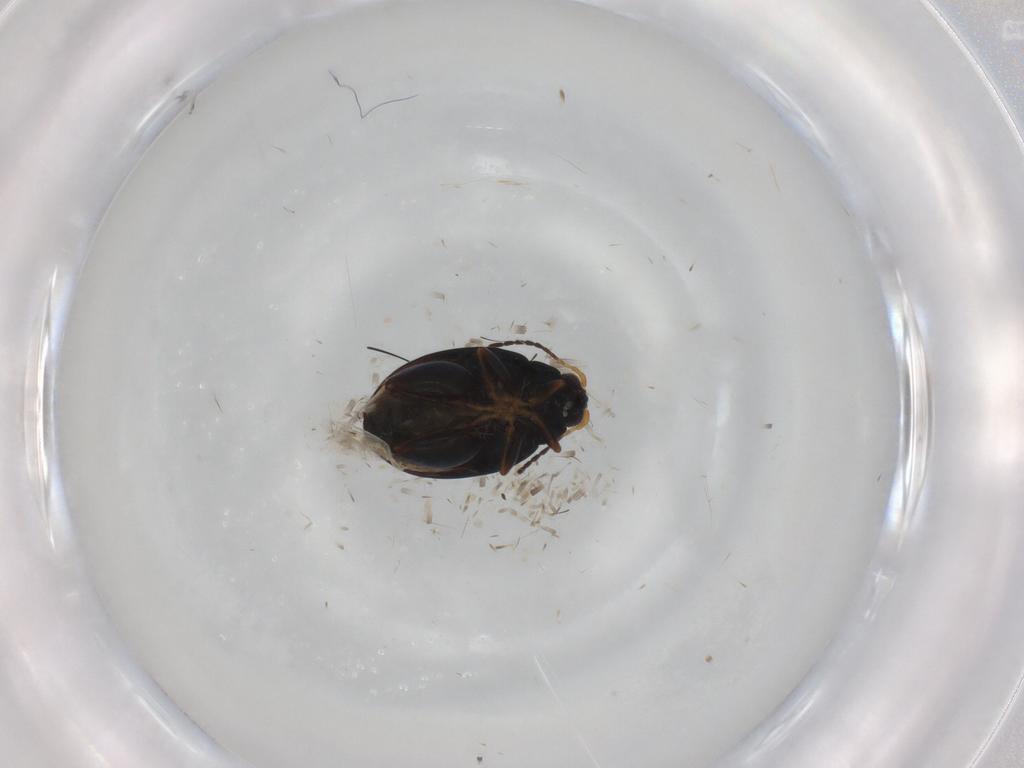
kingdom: Animalia
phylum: Arthropoda
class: Insecta
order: Coleoptera
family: Chrysomelidae
